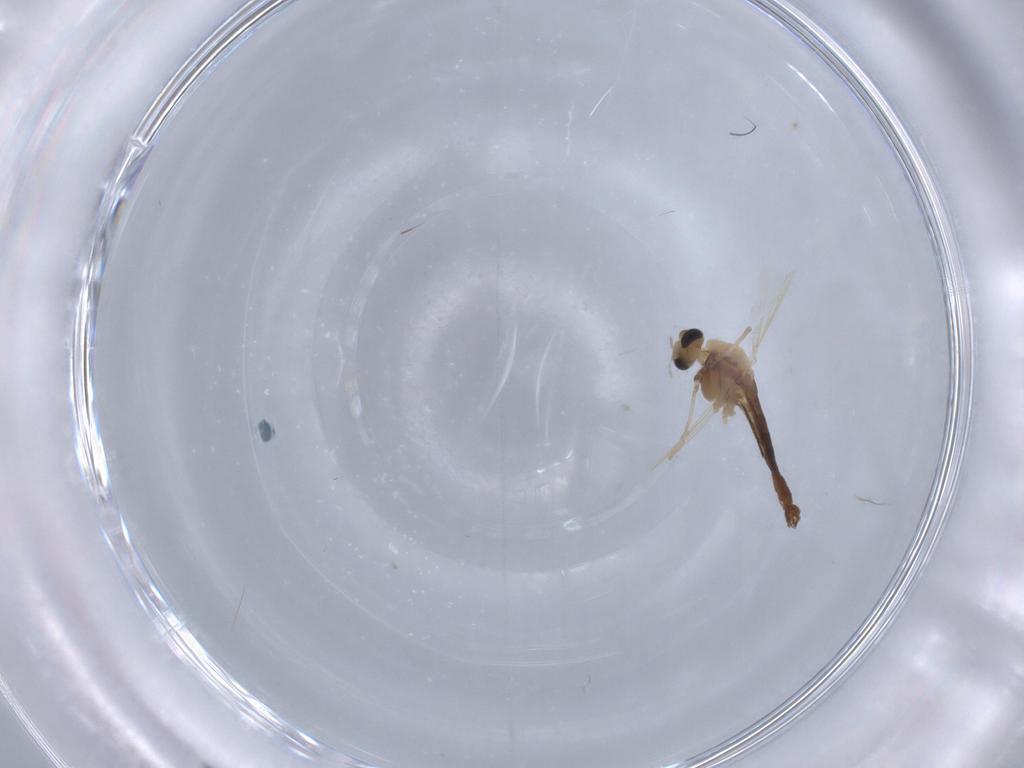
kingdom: Animalia
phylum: Arthropoda
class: Insecta
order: Diptera
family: Chironomidae
